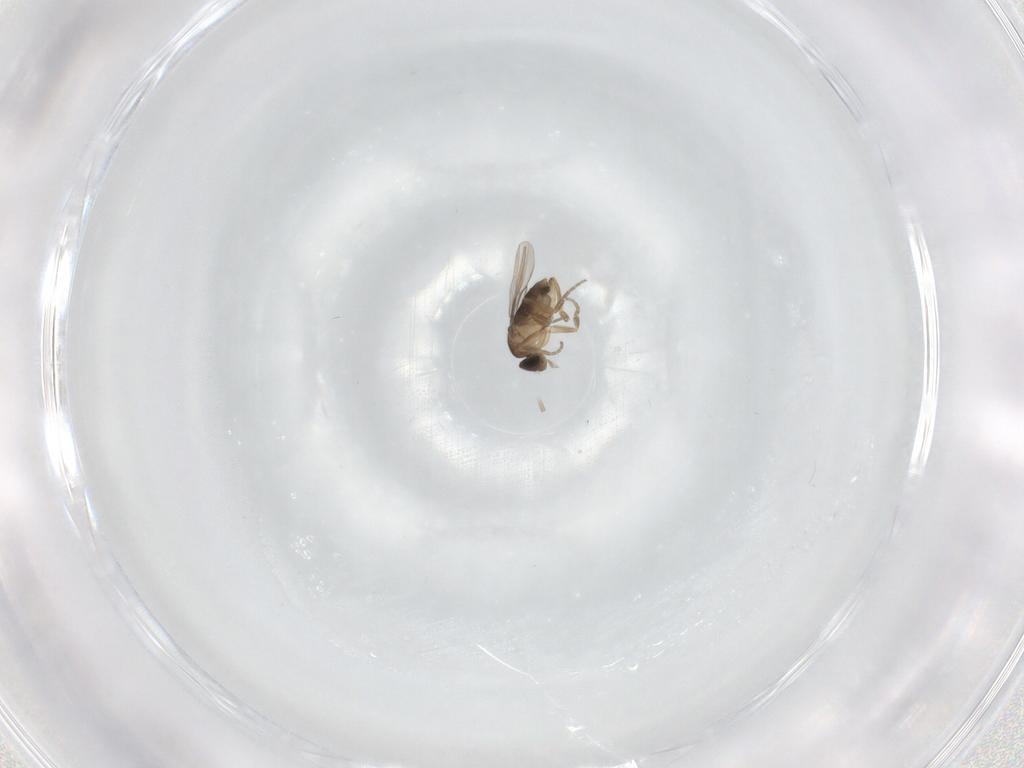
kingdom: Animalia
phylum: Arthropoda
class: Insecta
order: Diptera
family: Phoridae
